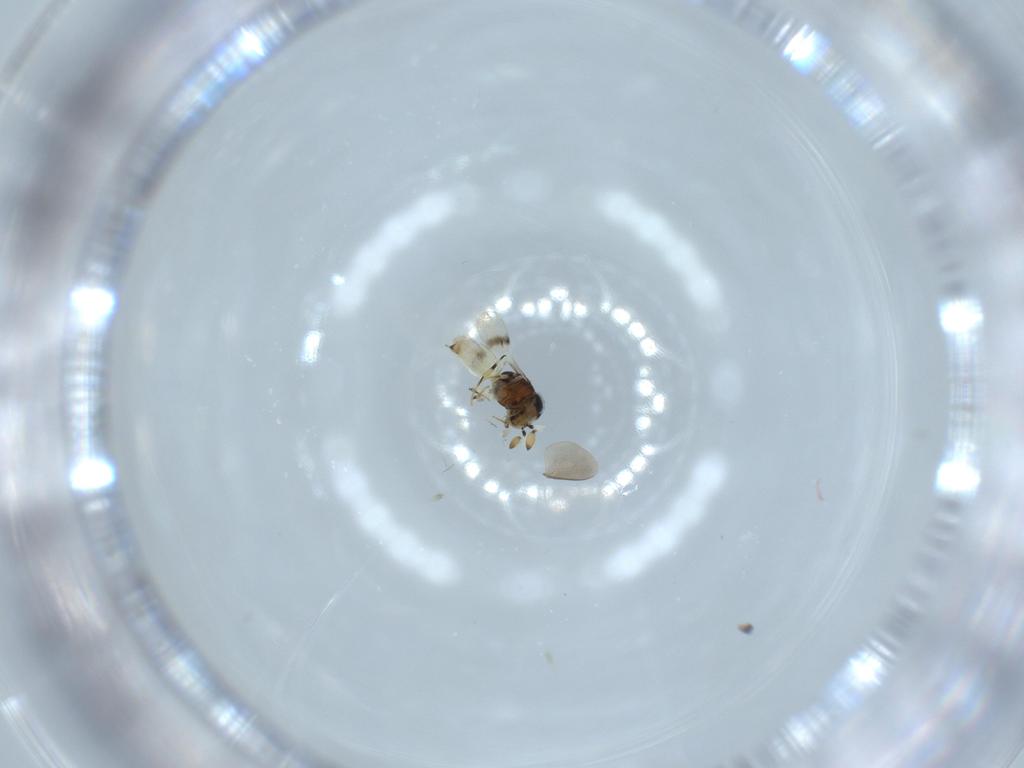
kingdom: Animalia
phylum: Arthropoda
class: Insecta
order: Hymenoptera
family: Scelionidae
